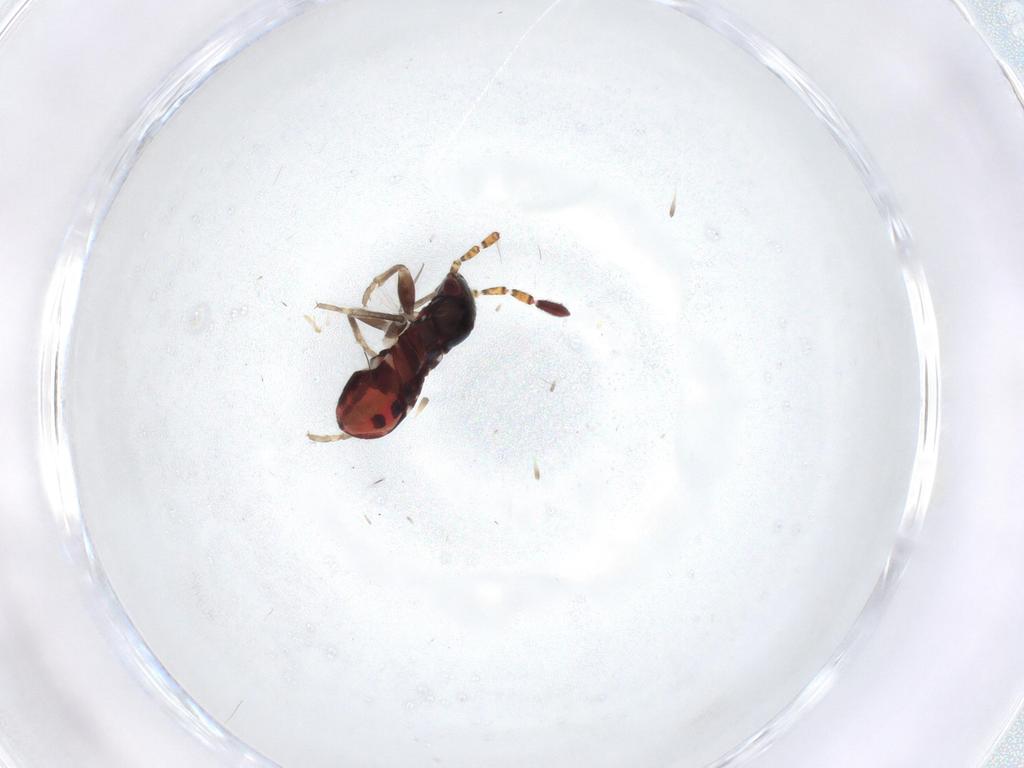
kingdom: Animalia
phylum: Arthropoda
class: Insecta
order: Hemiptera
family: Rhyparochromidae
